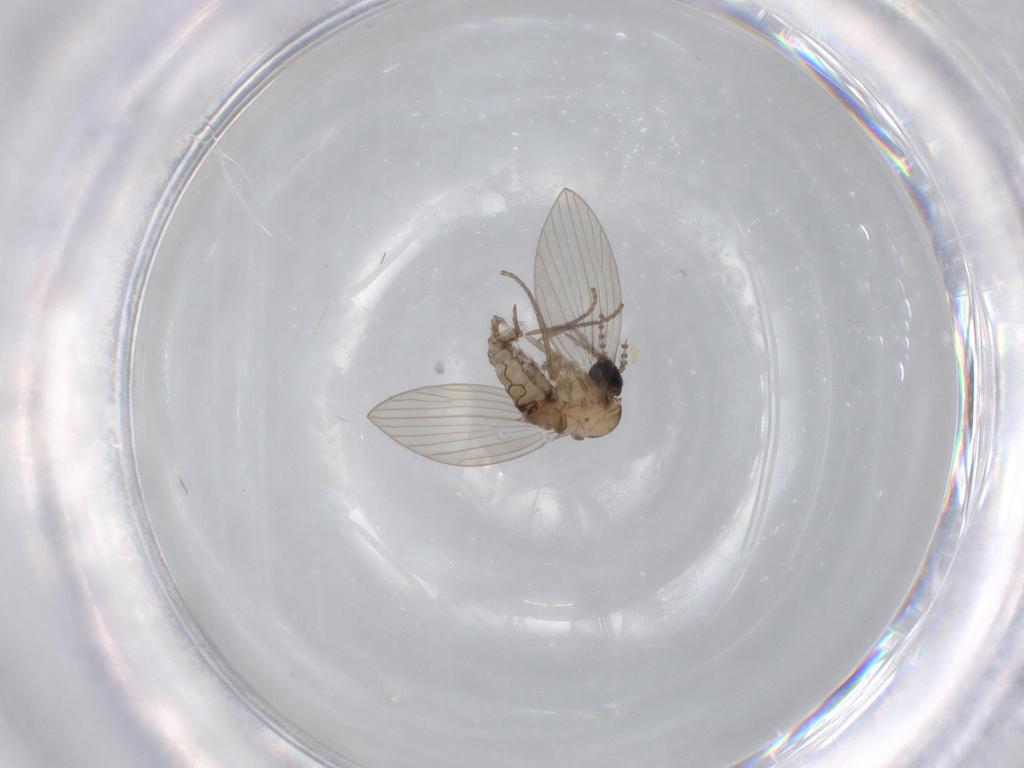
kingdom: Animalia
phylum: Arthropoda
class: Insecta
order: Diptera
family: Psychodidae
